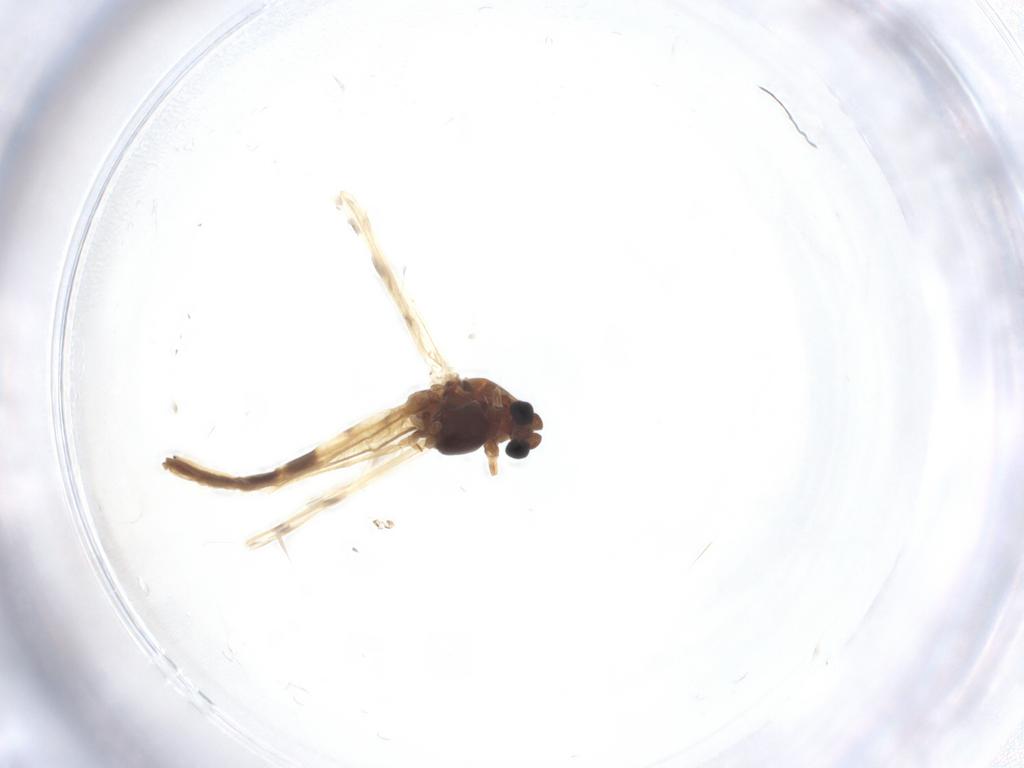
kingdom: Animalia
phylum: Arthropoda
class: Insecta
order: Diptera
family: Chironomidae
